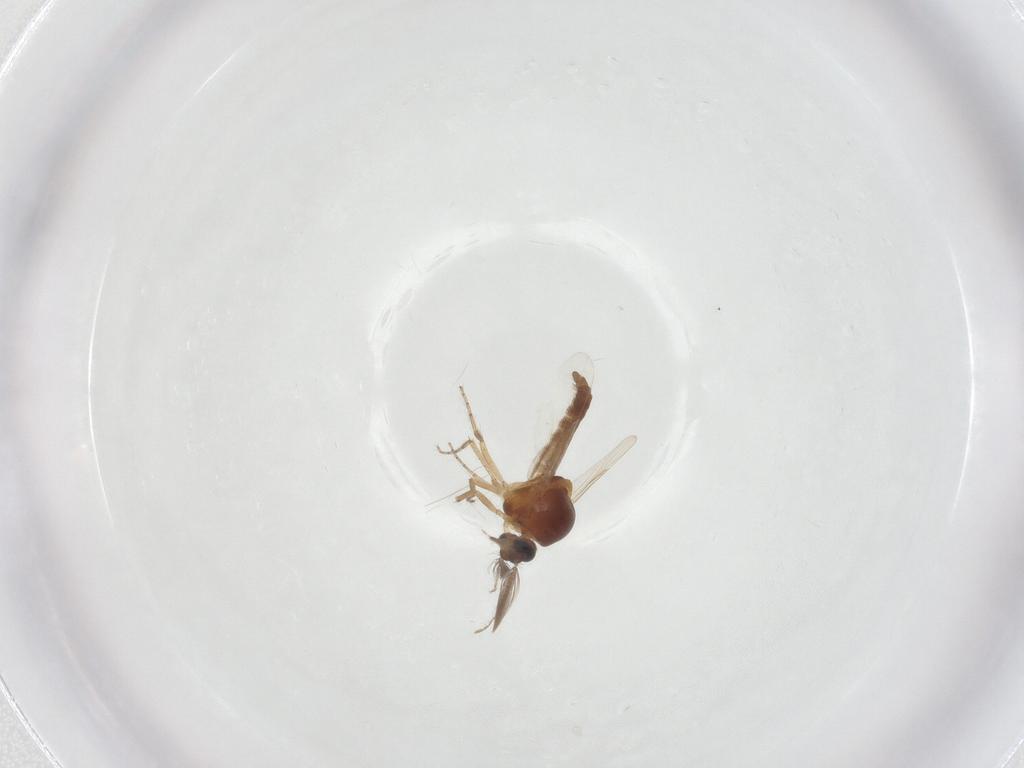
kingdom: Animalia
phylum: Arthropoda
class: Insecta
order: Diptera
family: Ceratopogonidae
